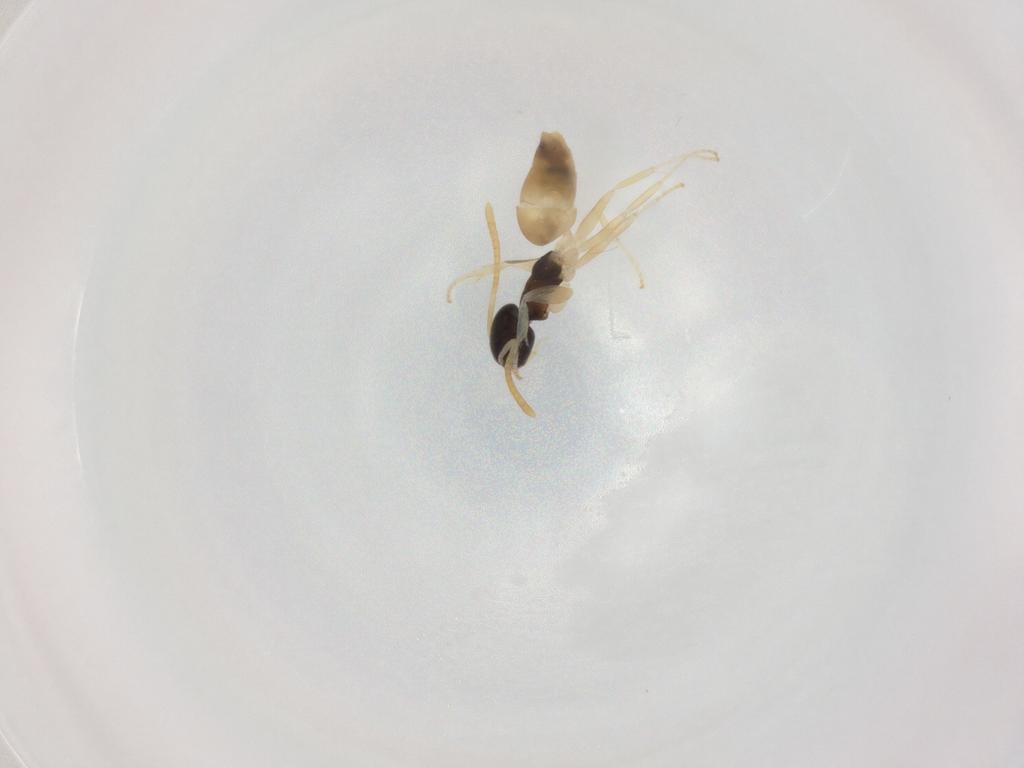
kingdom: Animalia
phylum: Arthropoda
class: Insecta
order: Hymenoptera
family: Formicidae
